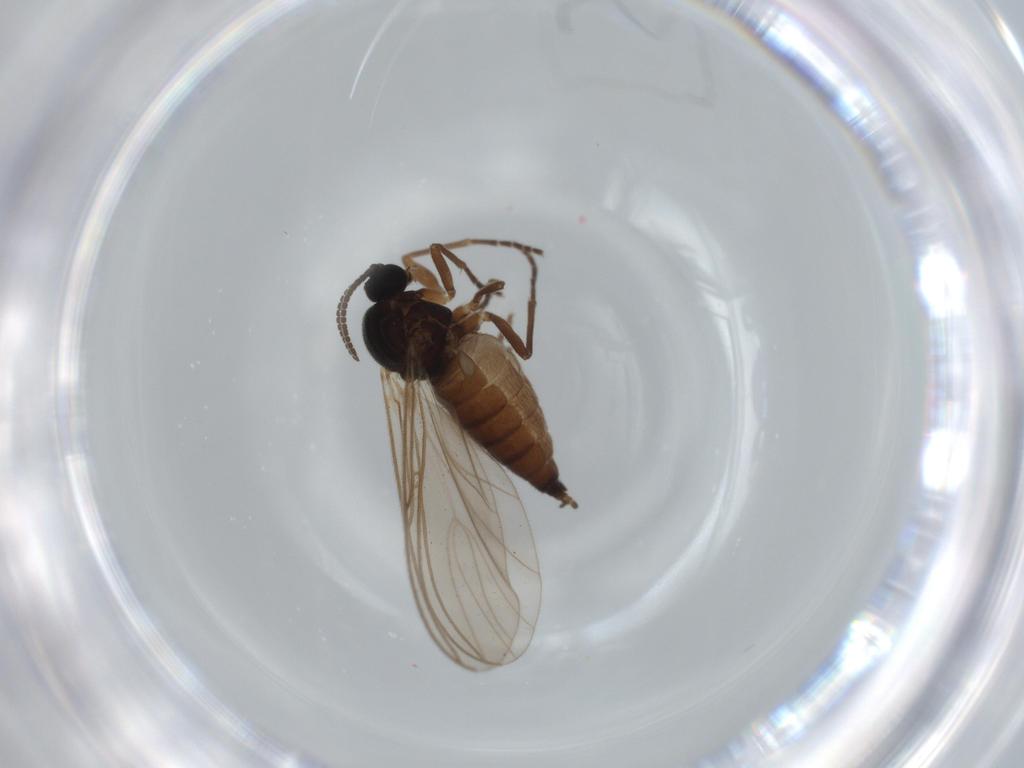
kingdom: Animalia
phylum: Arthropoda
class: Insecta
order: Diptera
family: Sciaridae
